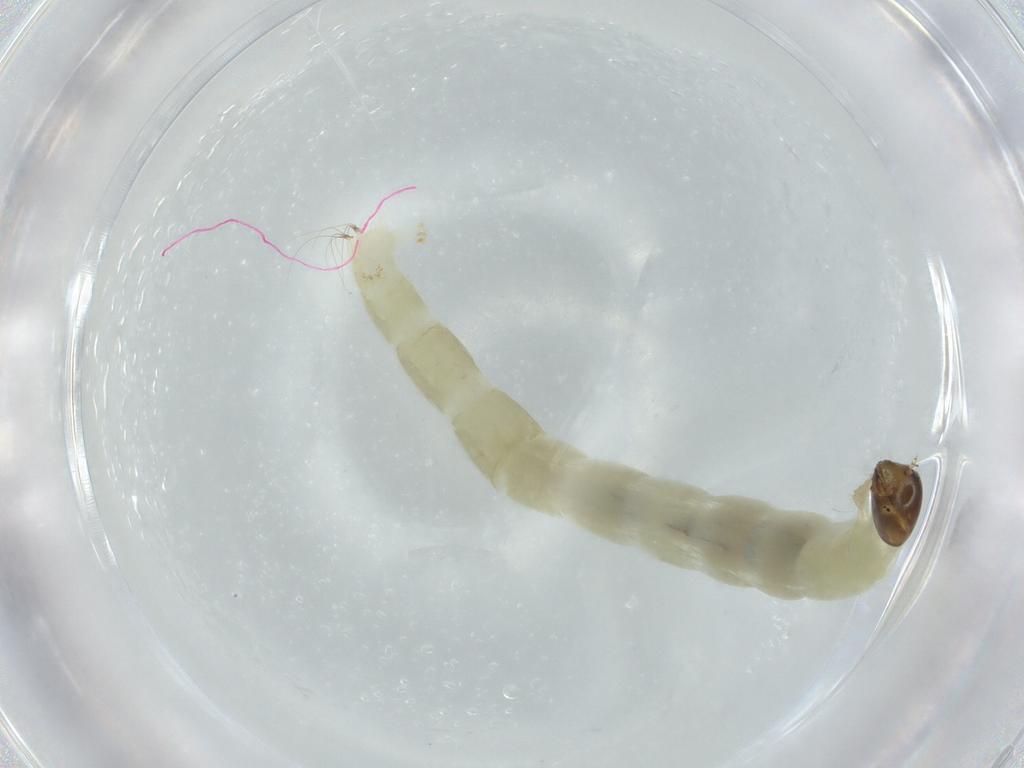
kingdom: Animalia
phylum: Arthropoda
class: Insecta
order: Diptera
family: Chironomidae
